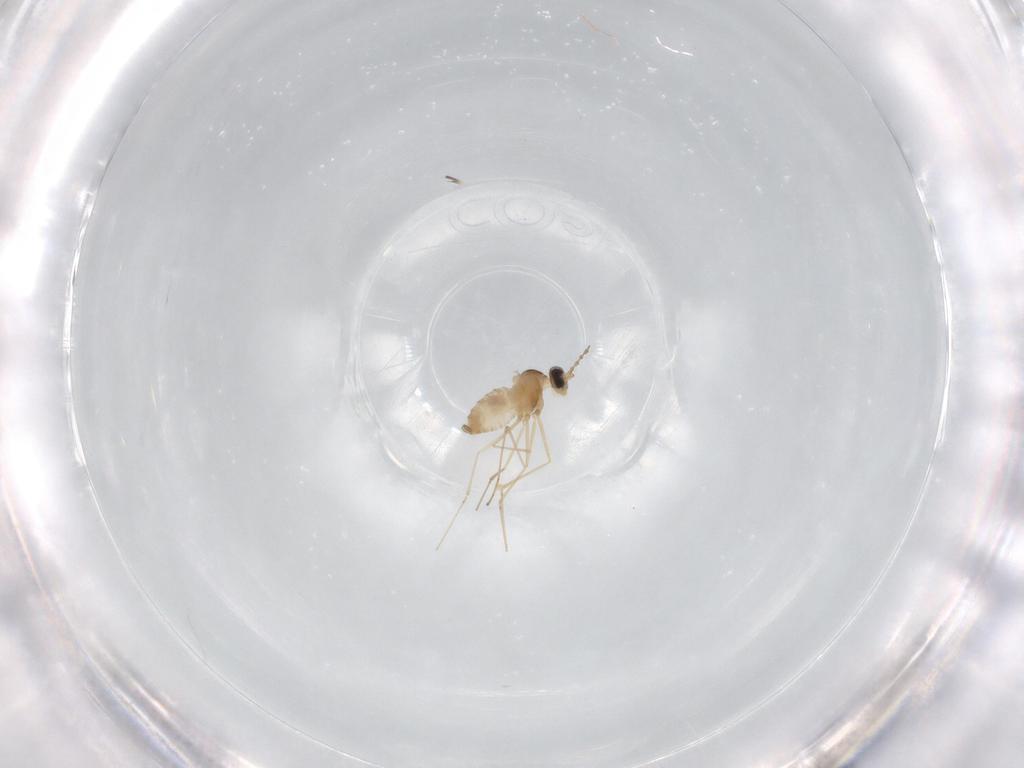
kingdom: Animalia
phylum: Arthropoda
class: Insecta
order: Diptera
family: Cecidomyiidae
